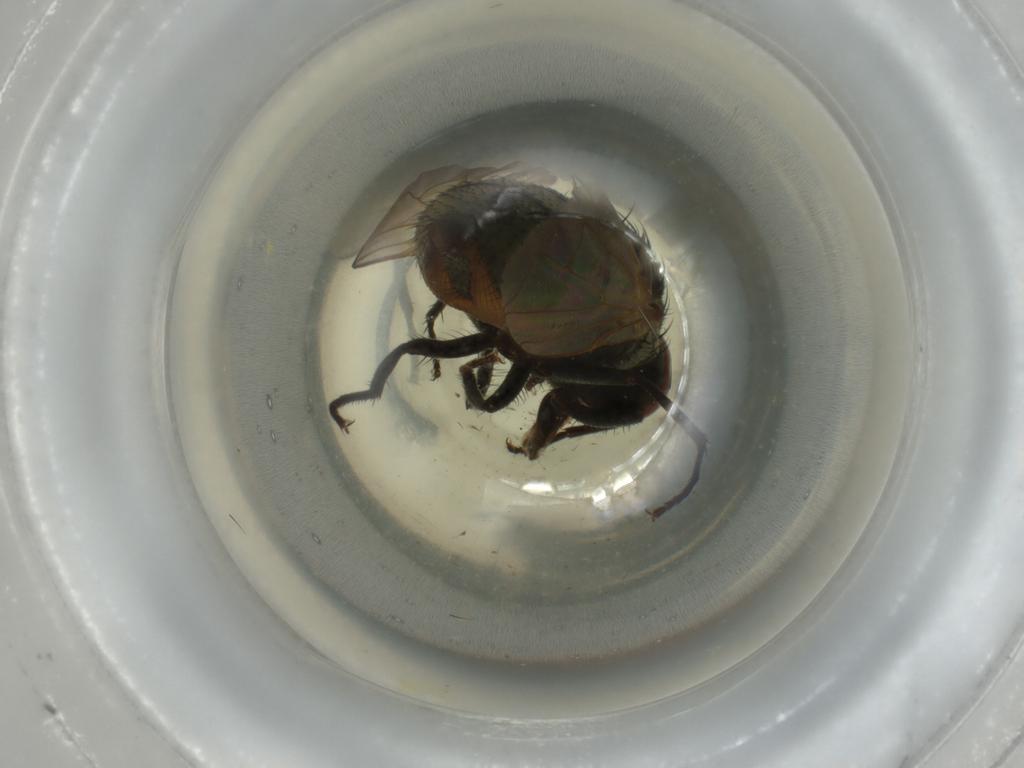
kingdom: Animalia
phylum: Arthropoda
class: Insecta
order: Diptera
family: Muscidae
